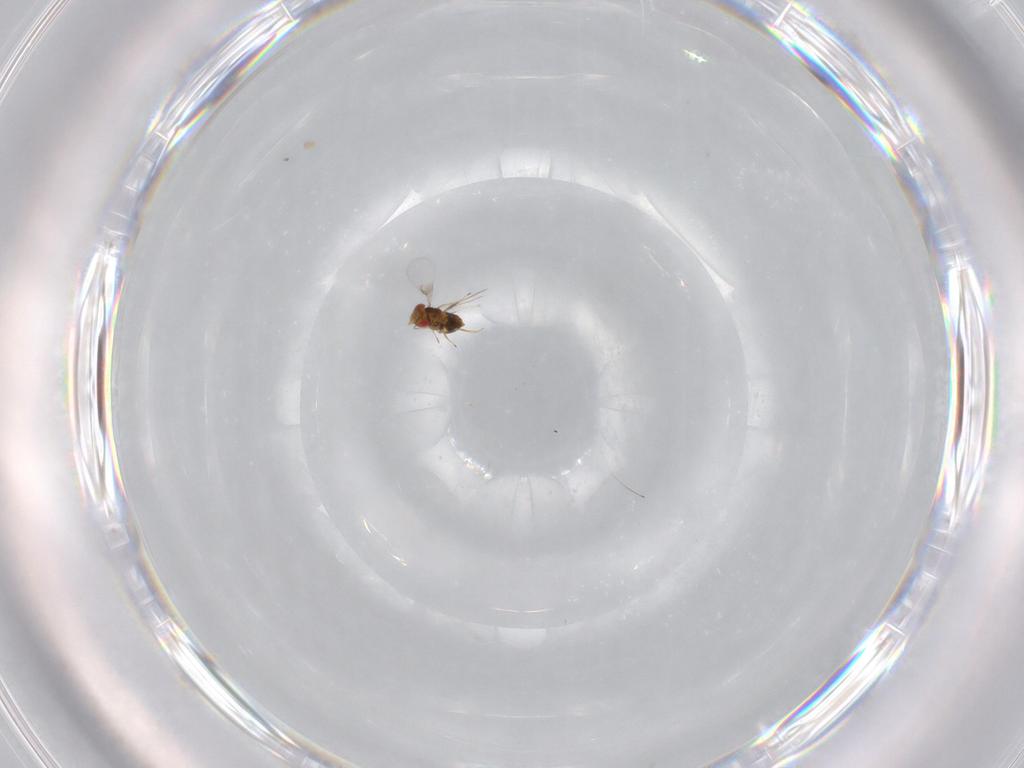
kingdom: Animalia
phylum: Arthropoda
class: Insecta
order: Hymenoptera
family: Trichogrammatidae
